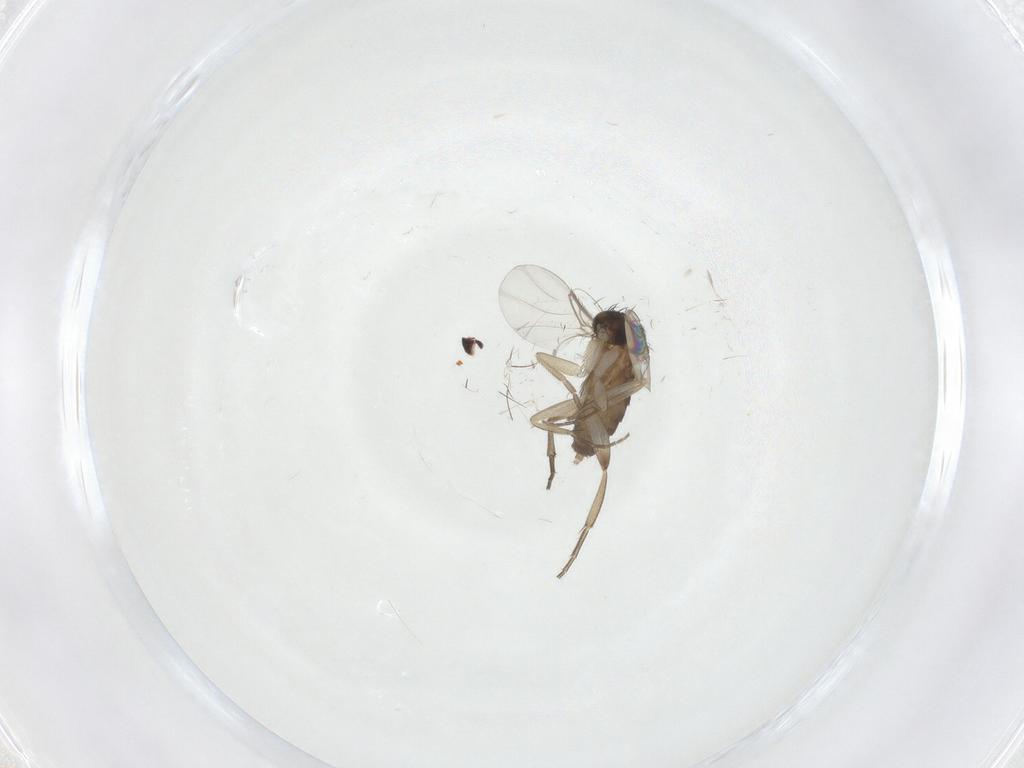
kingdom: Animalia
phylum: Arthropoda
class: Insecta
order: Diptera
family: Phoridae
